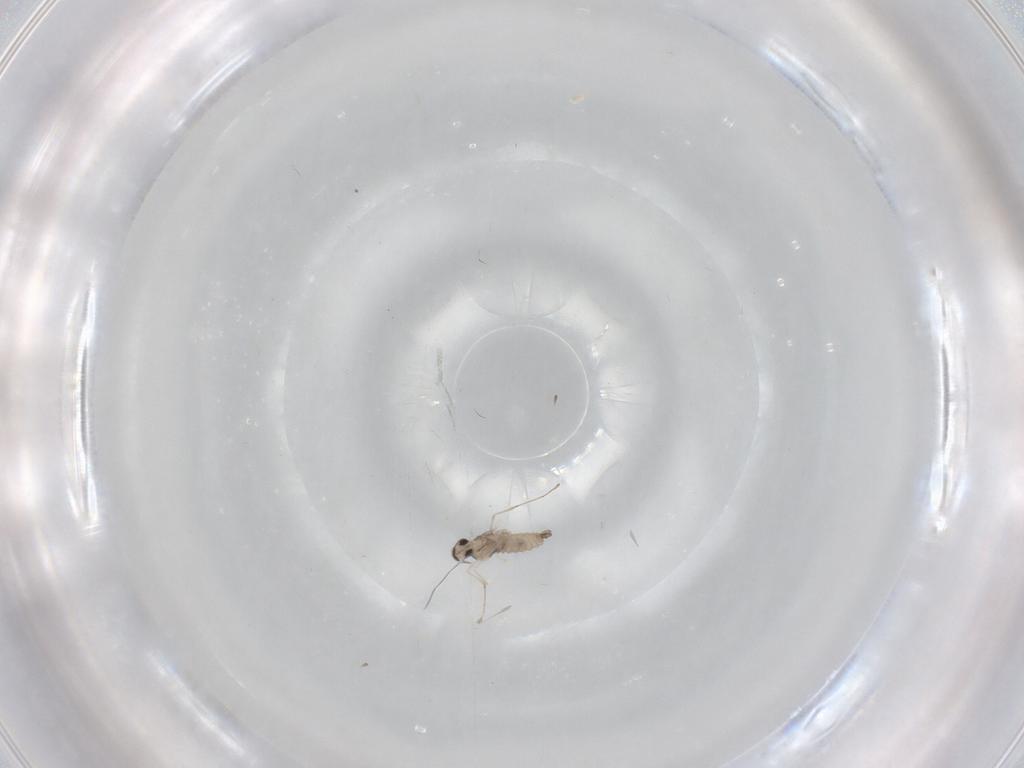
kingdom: Animalia
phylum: Arthropoda
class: Insecta
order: Diptera
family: Cecidomyiidae
